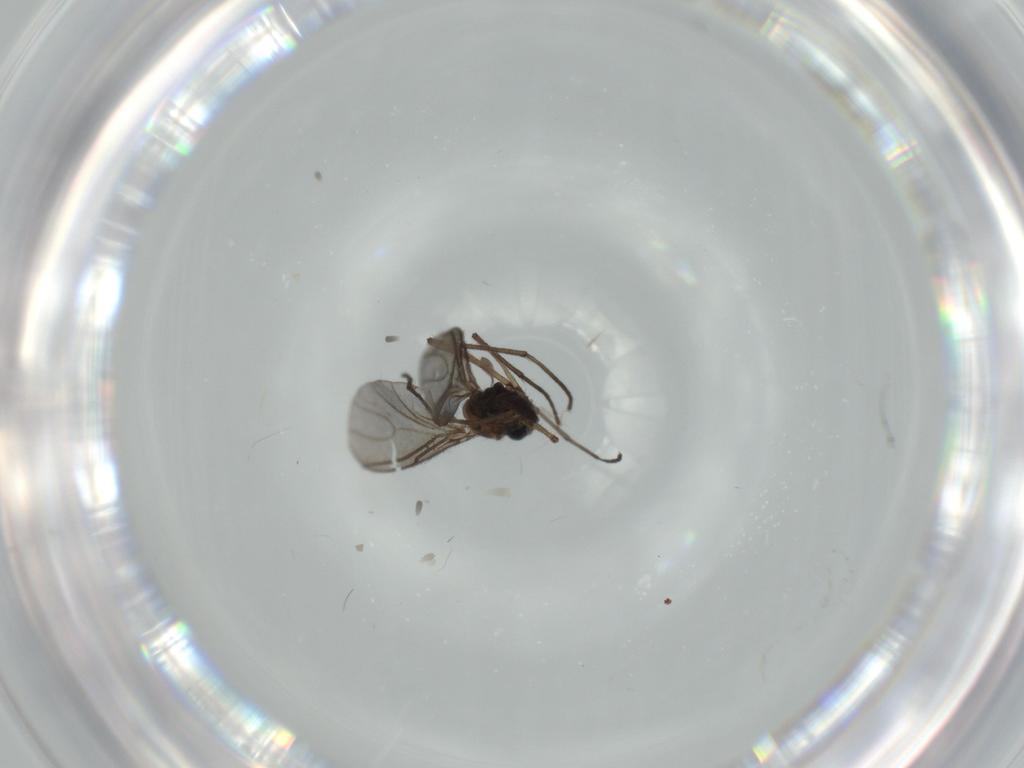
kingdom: Animalia
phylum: Arthropoda
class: Insecta
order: Diptera
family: Sciaridae
